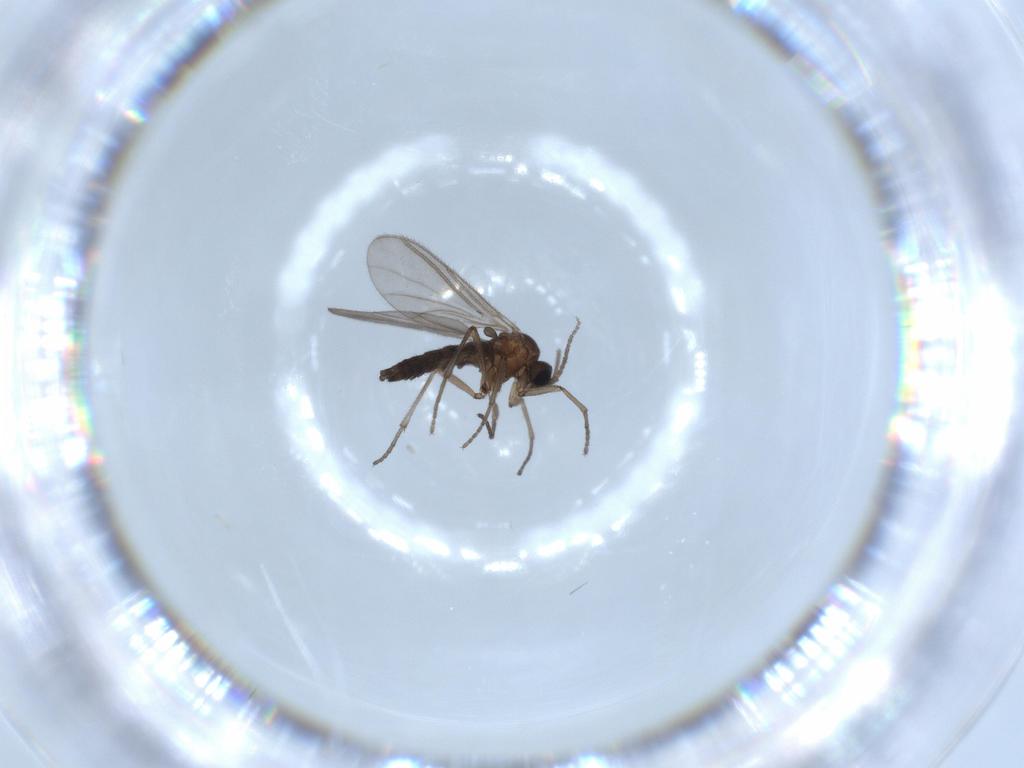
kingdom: Animalia
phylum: Arthropoda
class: Insecta
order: Diptera
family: Sciaridae
